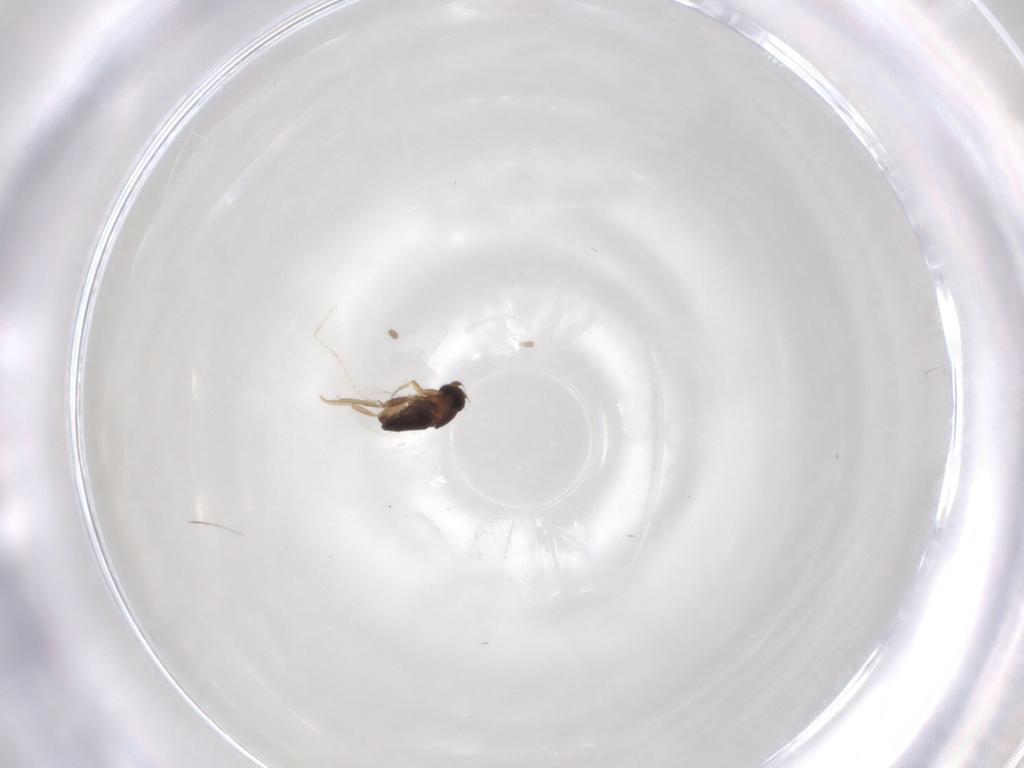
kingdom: Animalia
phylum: Arthropoda
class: Insecta
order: Diptera
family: Phoridae
